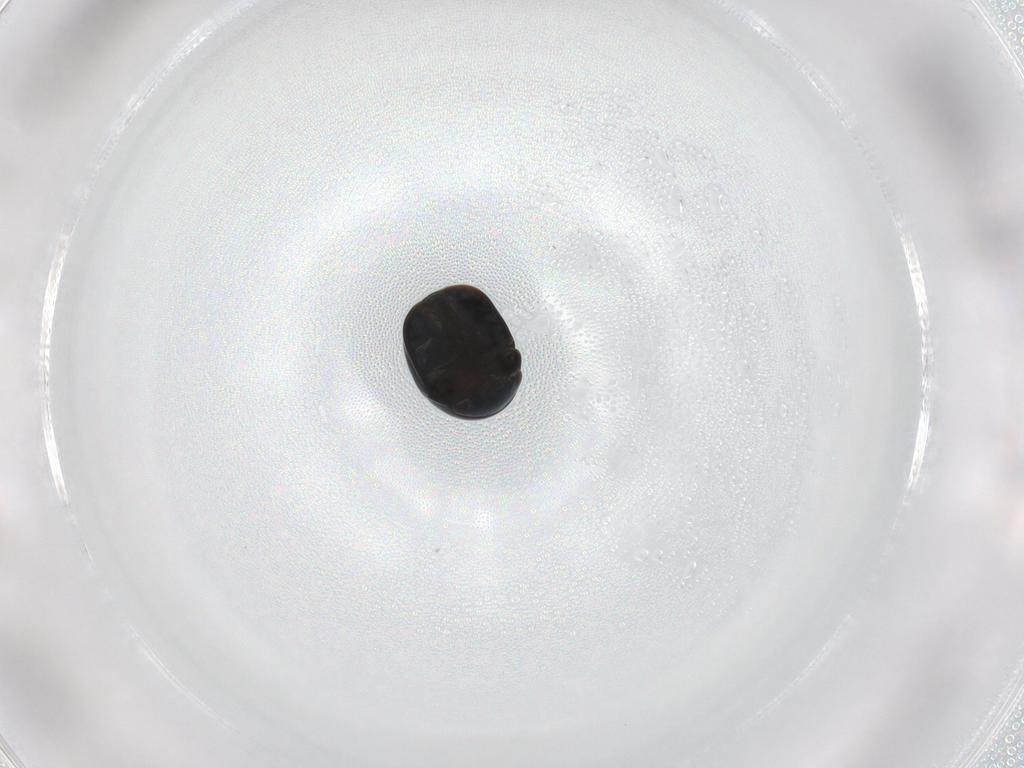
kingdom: Animalia
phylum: Arthropoda
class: Insecta
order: Coleoptera
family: Cybocephalidae
